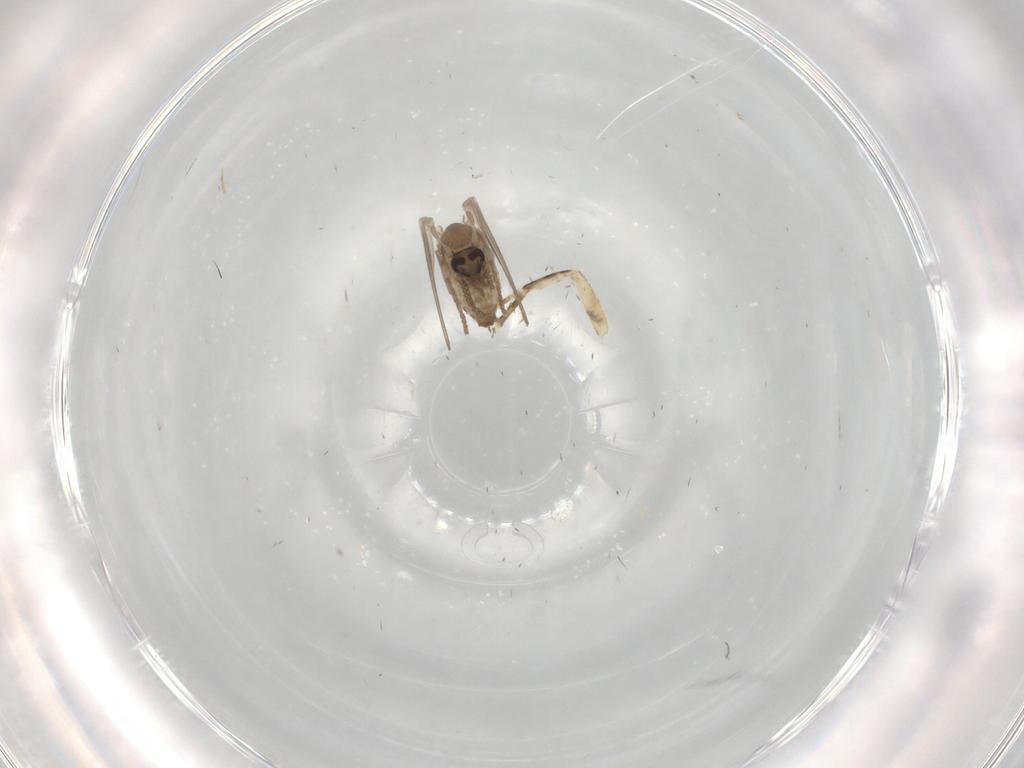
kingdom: Animalia
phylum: Arthropoda
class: Insecta
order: Diptera
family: Psychodidae
